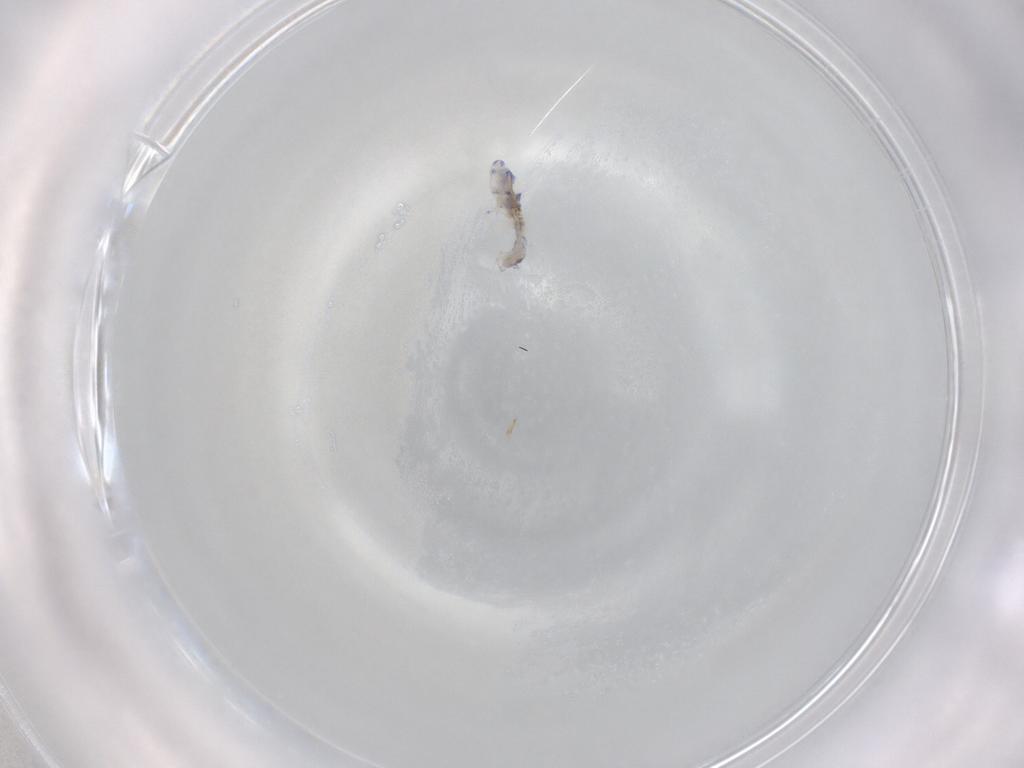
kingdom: Animalia
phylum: Arthropoda
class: Collembola
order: Entomobryomorpha
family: Entomobryidae
